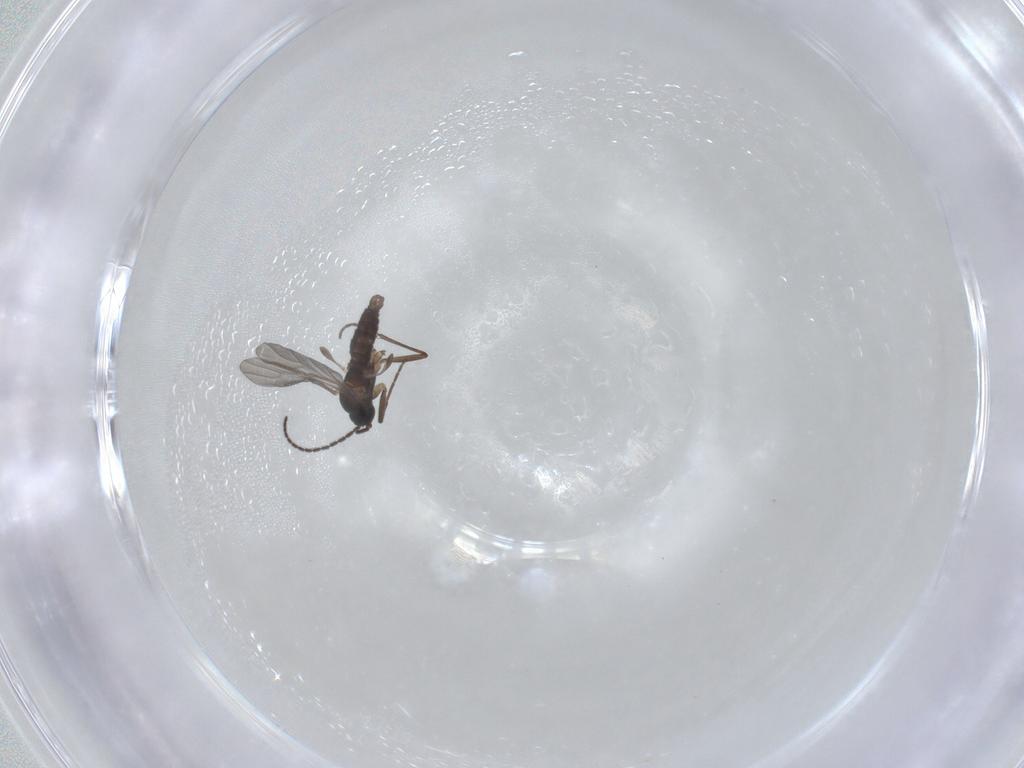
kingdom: Animalia
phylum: Arthropoda
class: Insecta
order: Diptera
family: Sciaridae
